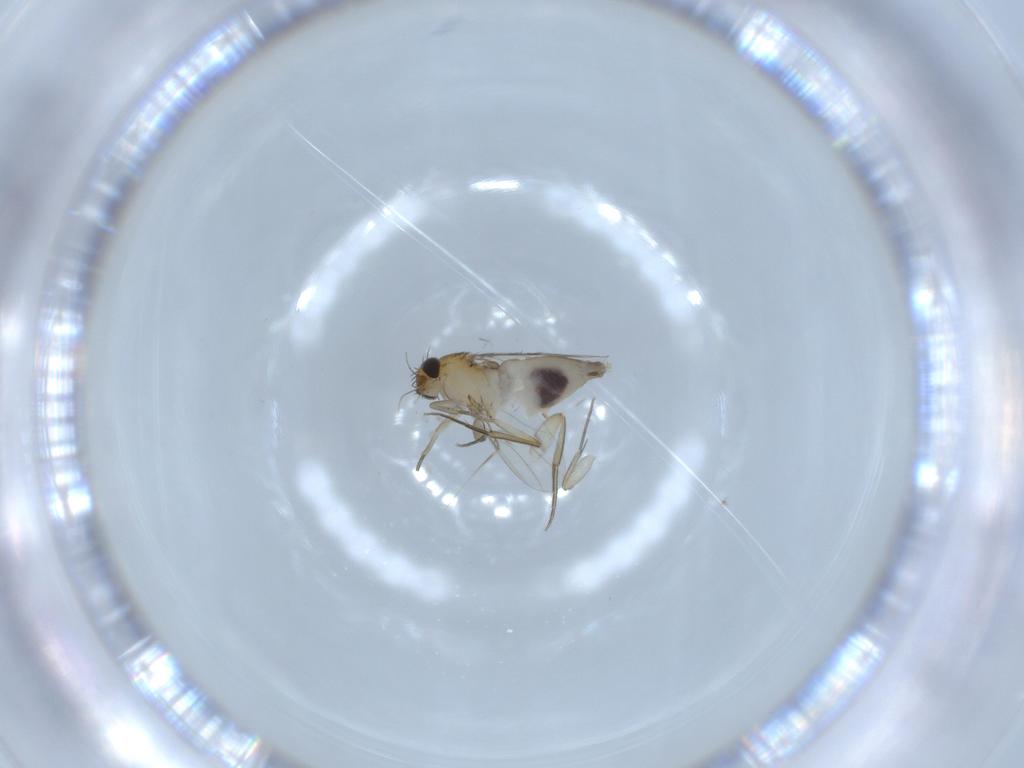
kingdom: Animalia
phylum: Arthropoda
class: Insecta
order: Diptera
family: Phoridae
